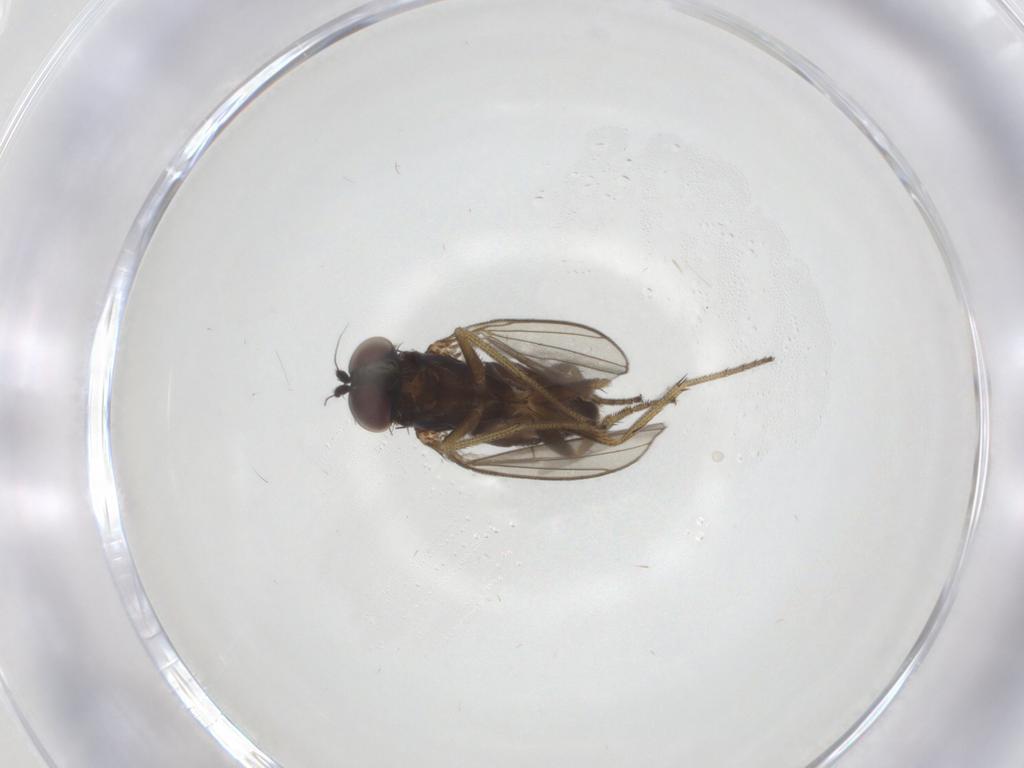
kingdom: Animalia
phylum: Arthropoda
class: Insecta
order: Diptera
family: Dolichopodidae
